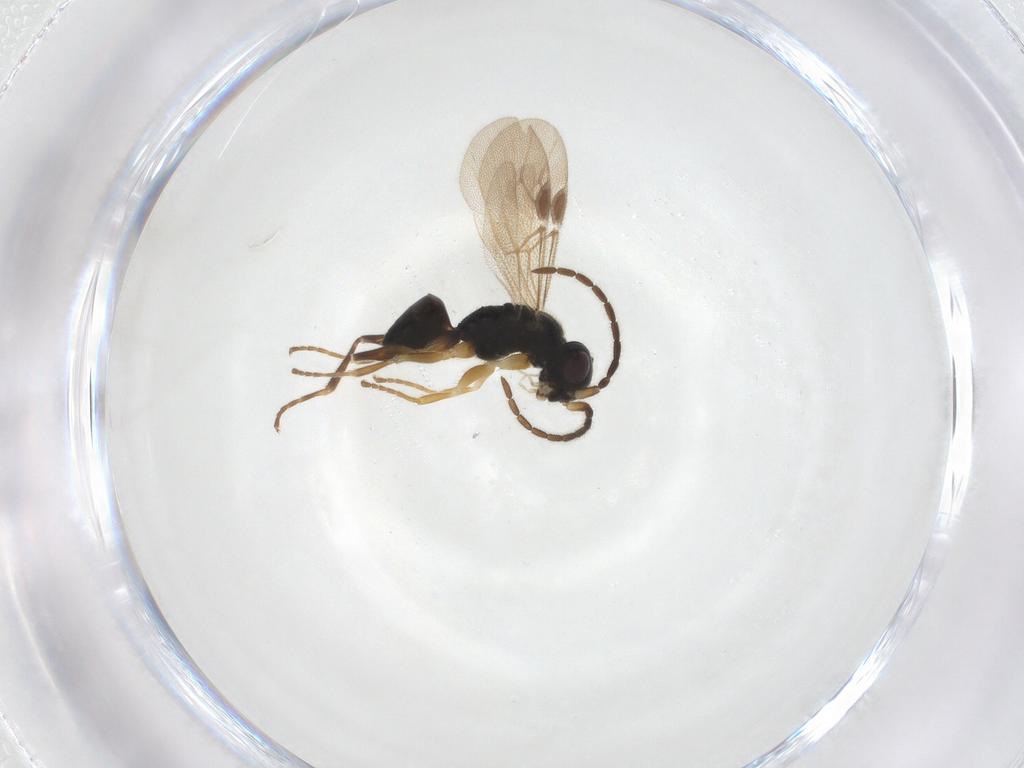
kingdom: Animalia
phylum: Arthropoda
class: Insecta
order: Hymenoptera
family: Dryinidae
